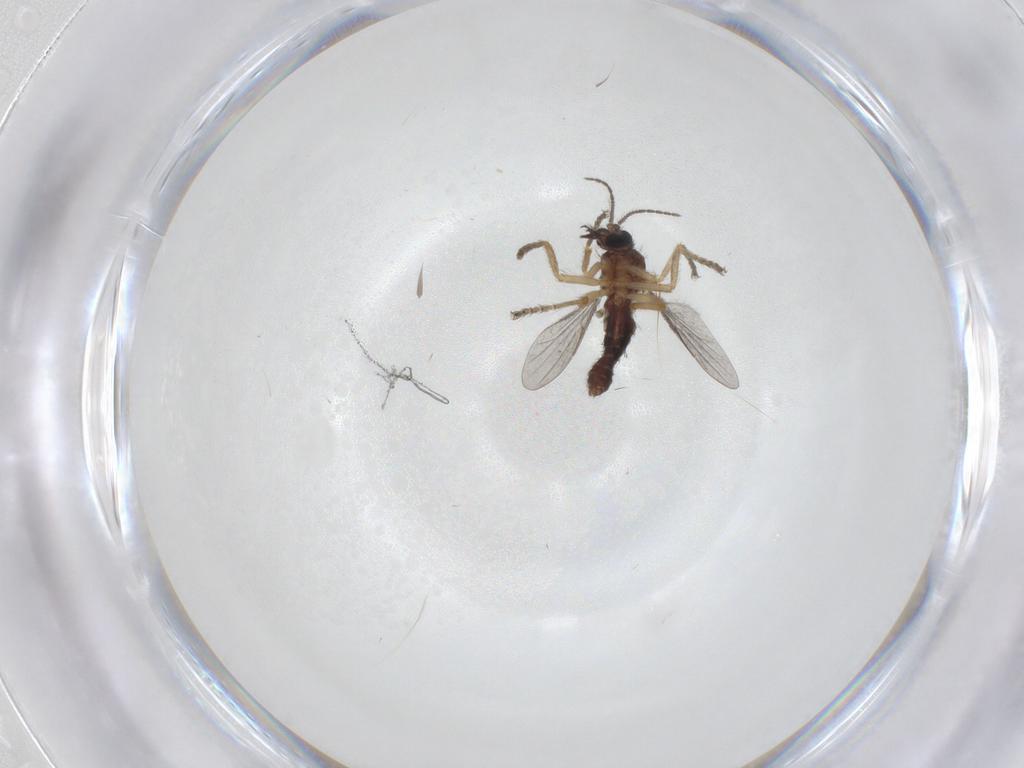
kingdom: Animalia
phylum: Arthropoda
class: Insecta
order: Diptera
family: Ceratopogonidae
